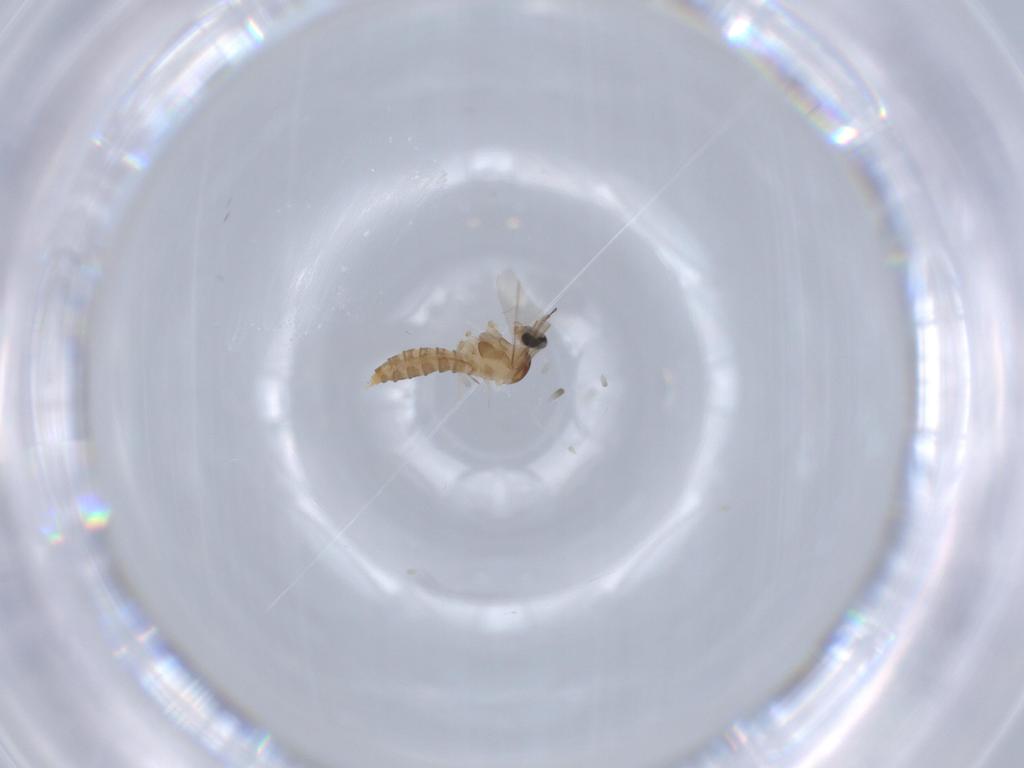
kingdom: Animalia
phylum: Arthropoda
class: Insecta
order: Diptera
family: Cecidomyiidae
